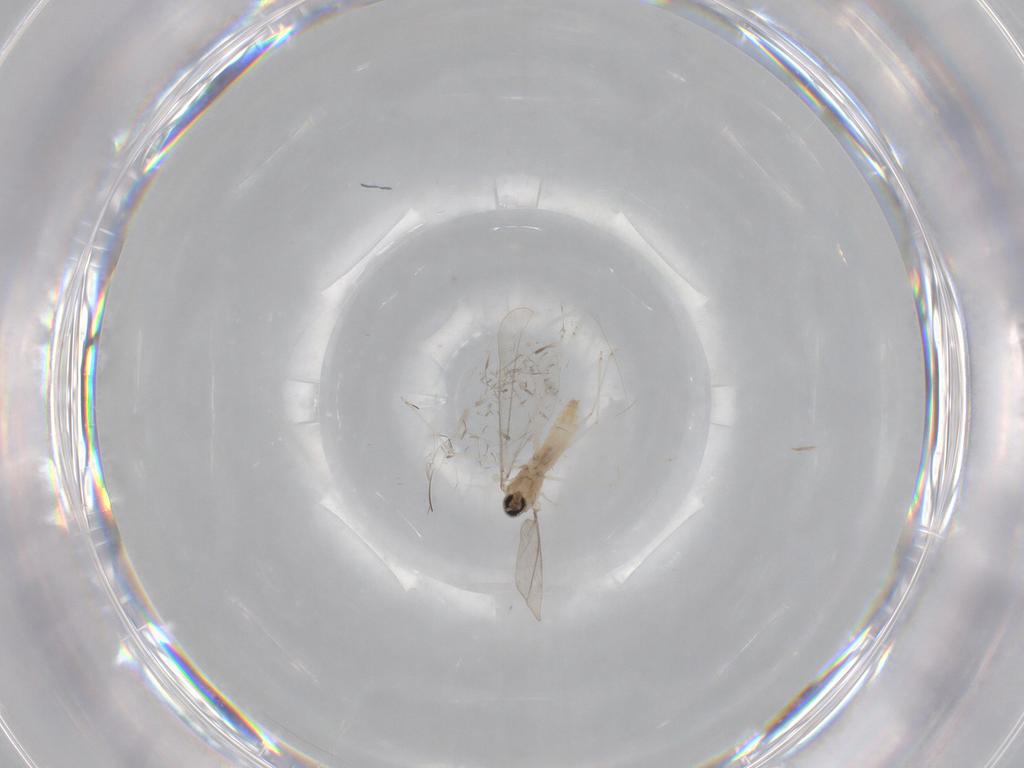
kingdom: Animalia
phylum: Arthropoda
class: Insecta
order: Diptera
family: Chironomidae
